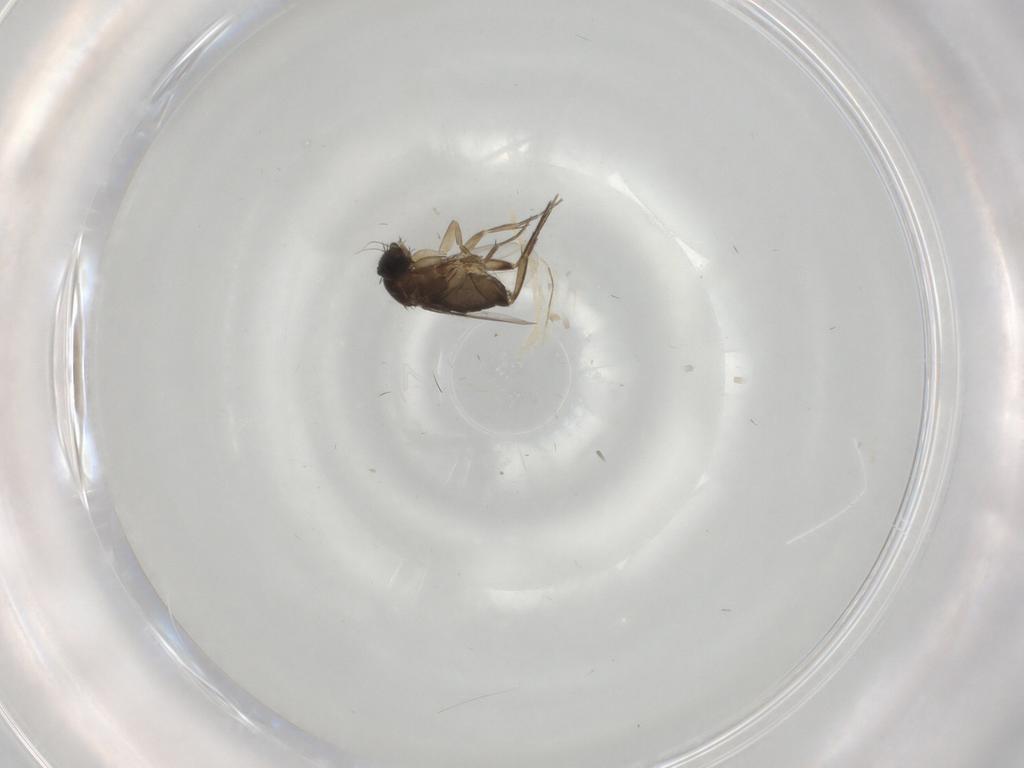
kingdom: Animalia
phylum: Arthropoda
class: Insecta
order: Diptera
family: Phoridae
